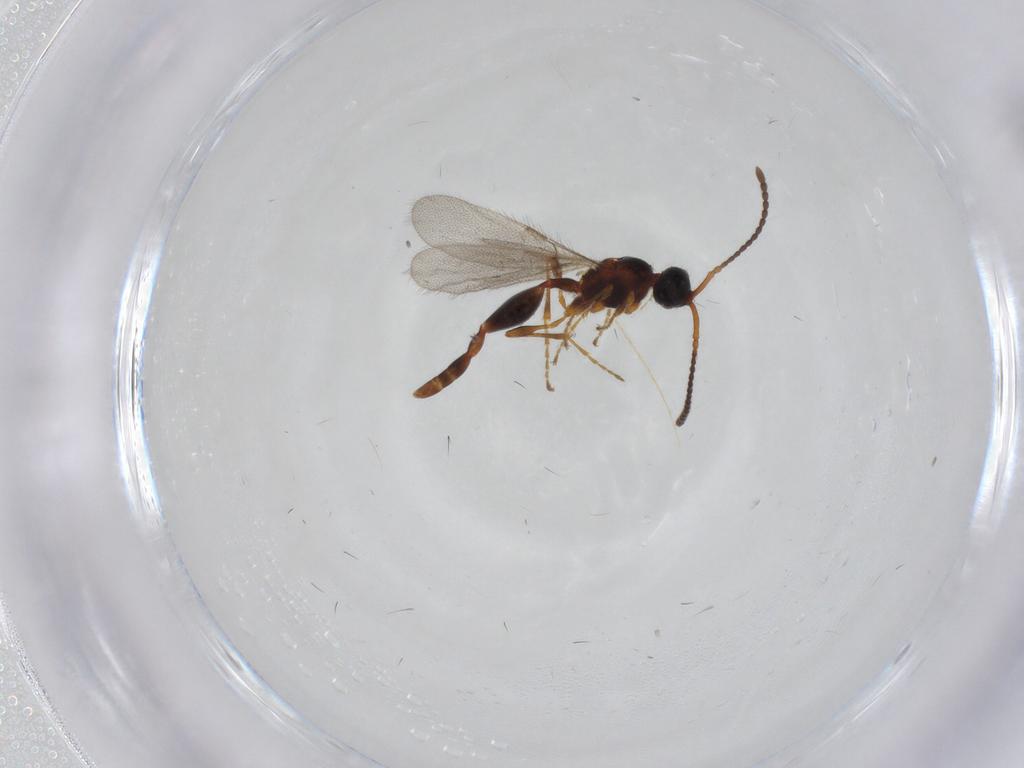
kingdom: Animalia
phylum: Arthropoda
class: Insecta
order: Hymenoptera
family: Diapriidae
